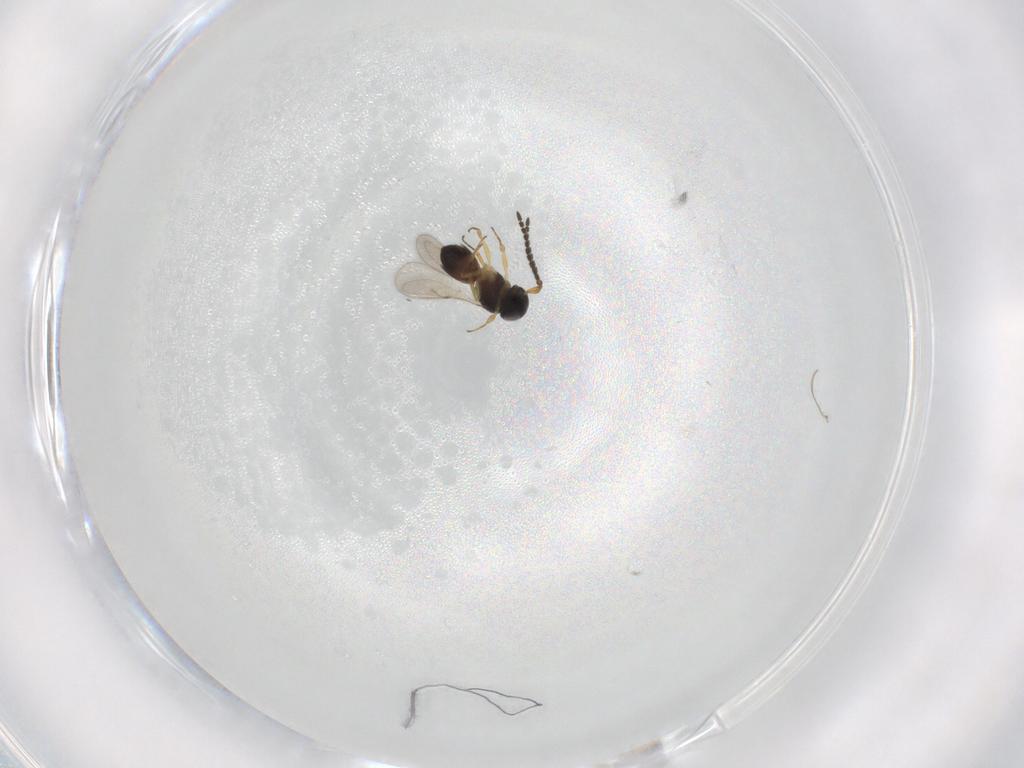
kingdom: Animalia
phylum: Arthropoda
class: Insecta
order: Hymenoptera
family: Scelionidae
